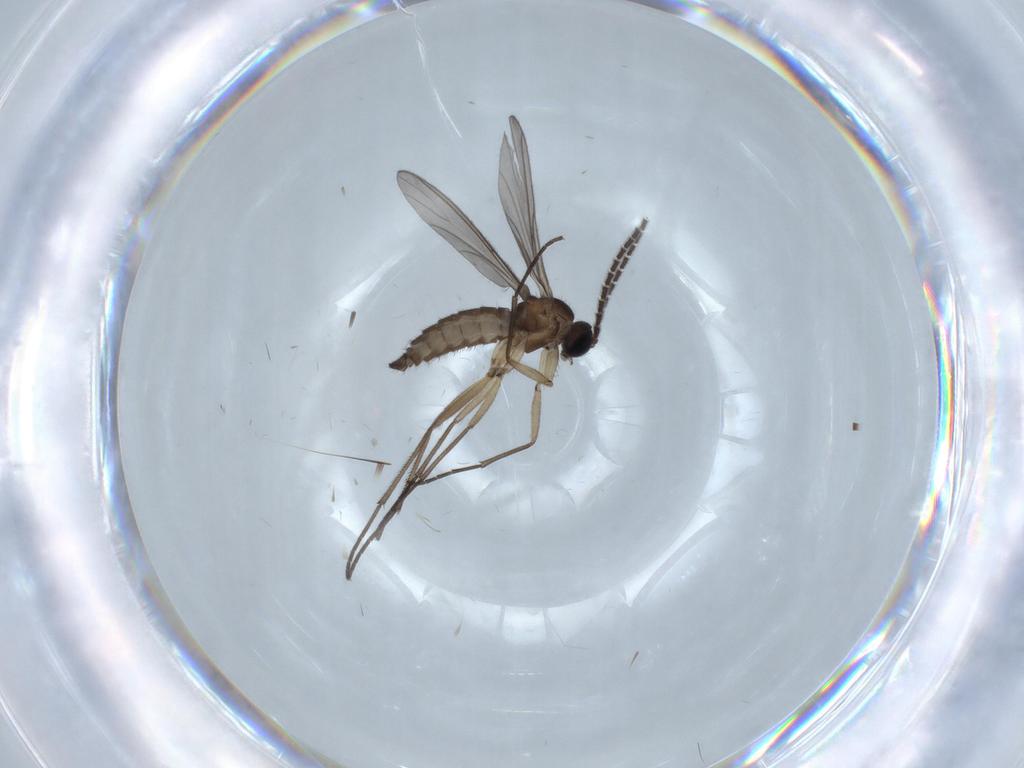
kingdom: Animalia
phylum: Arthropoda
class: Insecta
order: Diptera
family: Sciaridae
